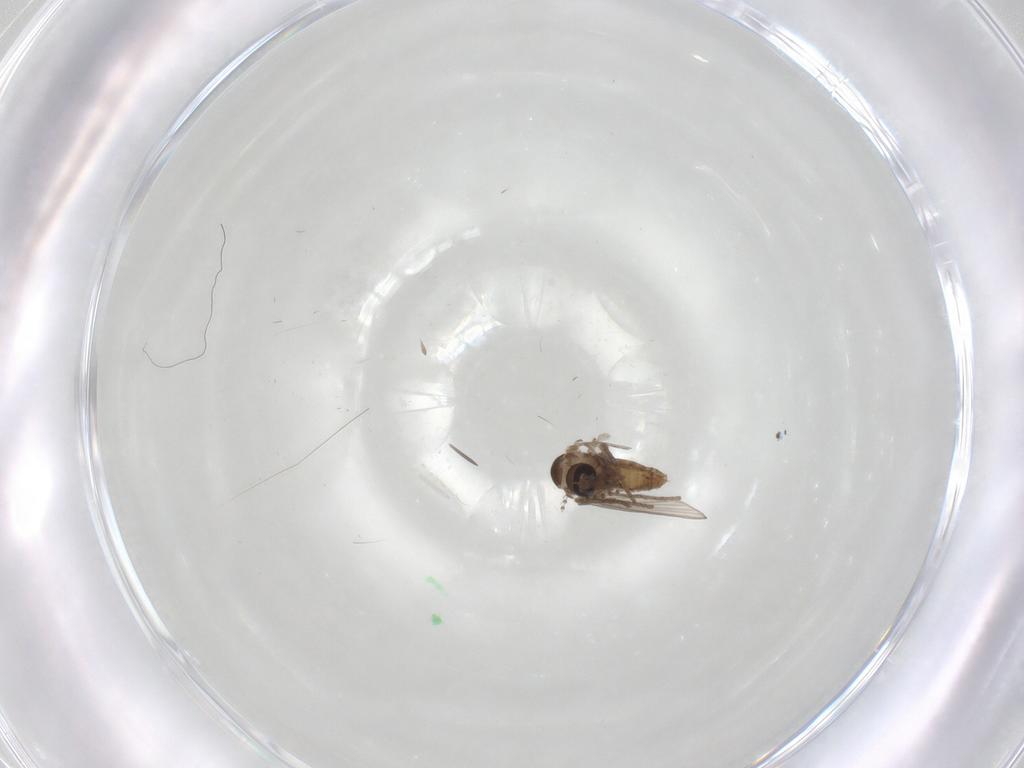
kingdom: Animalia
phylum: Arthropoda
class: Insecta
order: Diptera
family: Psychodidae
